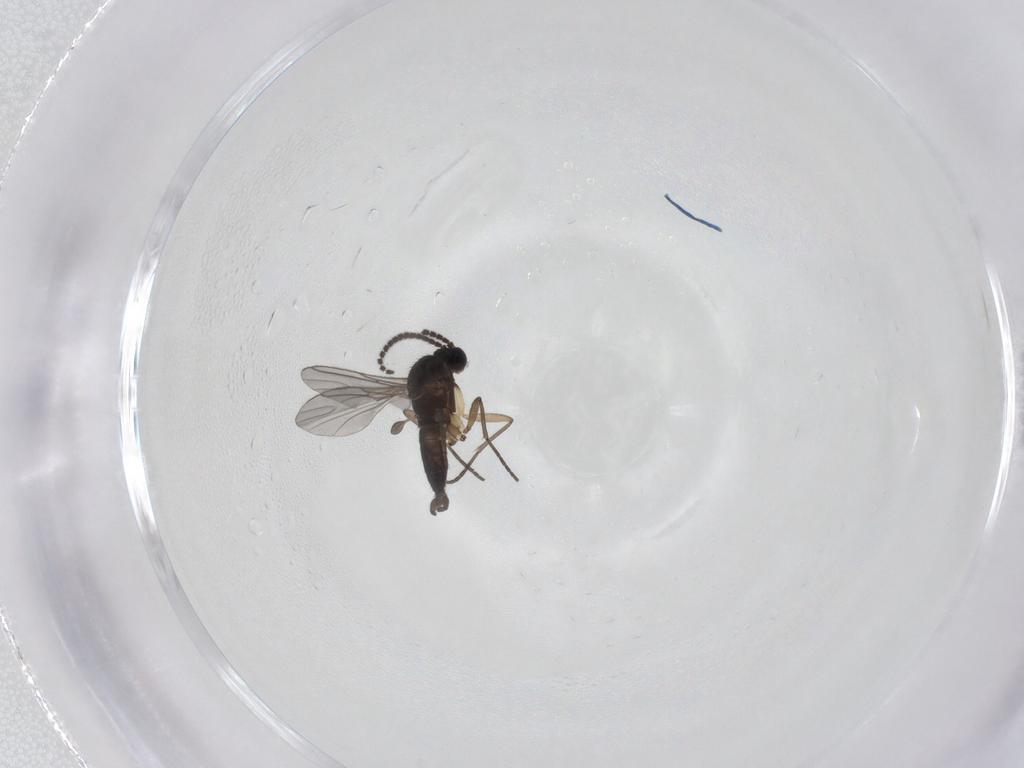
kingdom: Animalia
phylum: Arthropoda
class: Insecta
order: Diptera
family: Sciaridae
